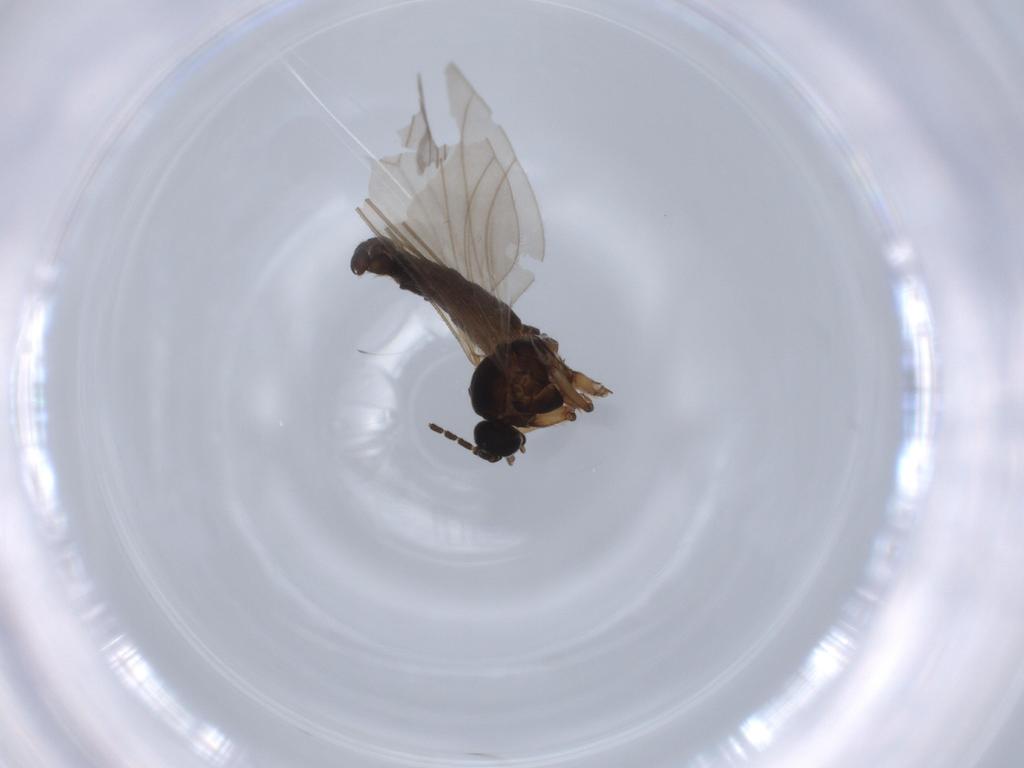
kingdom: Animalia
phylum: Arthropoda
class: Insecta
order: Diptera
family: Sciaridae
